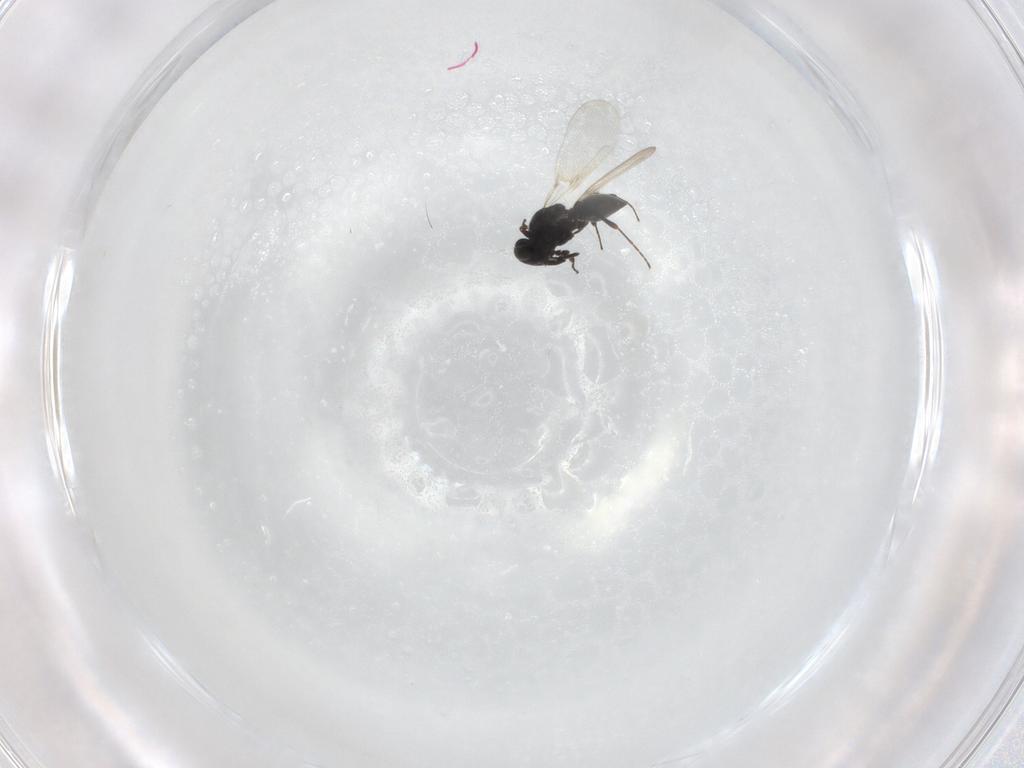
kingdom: Animalia
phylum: Arthropoda
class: Insecta
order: Hymenoptera
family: Platygastridae
